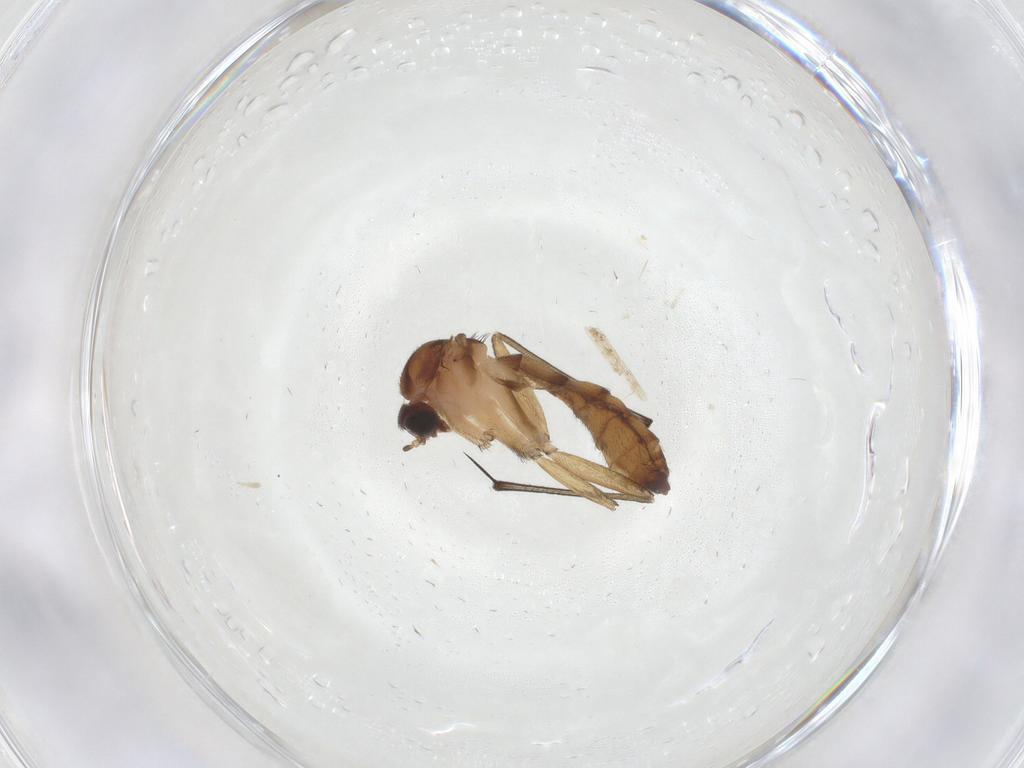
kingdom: Animalia
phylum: Arthropoda
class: Insecta
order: Diptera
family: Keroplatidae
